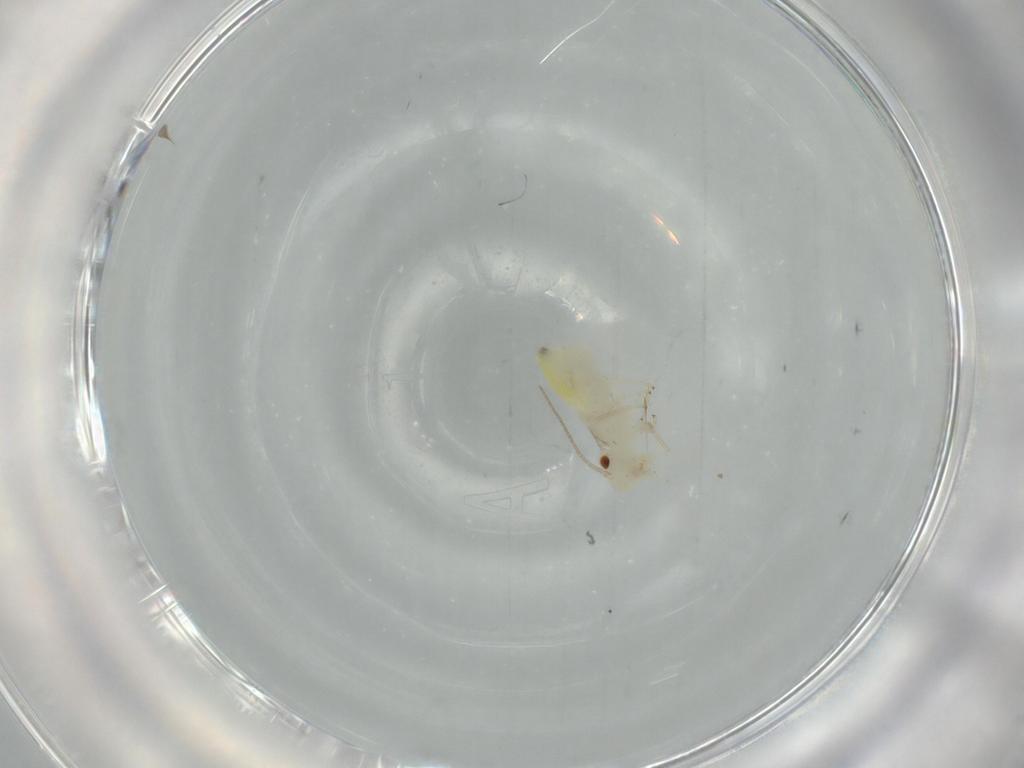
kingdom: Animalia
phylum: Arthropoda
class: Insecta
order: Psocodea
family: Caeciliusidae
